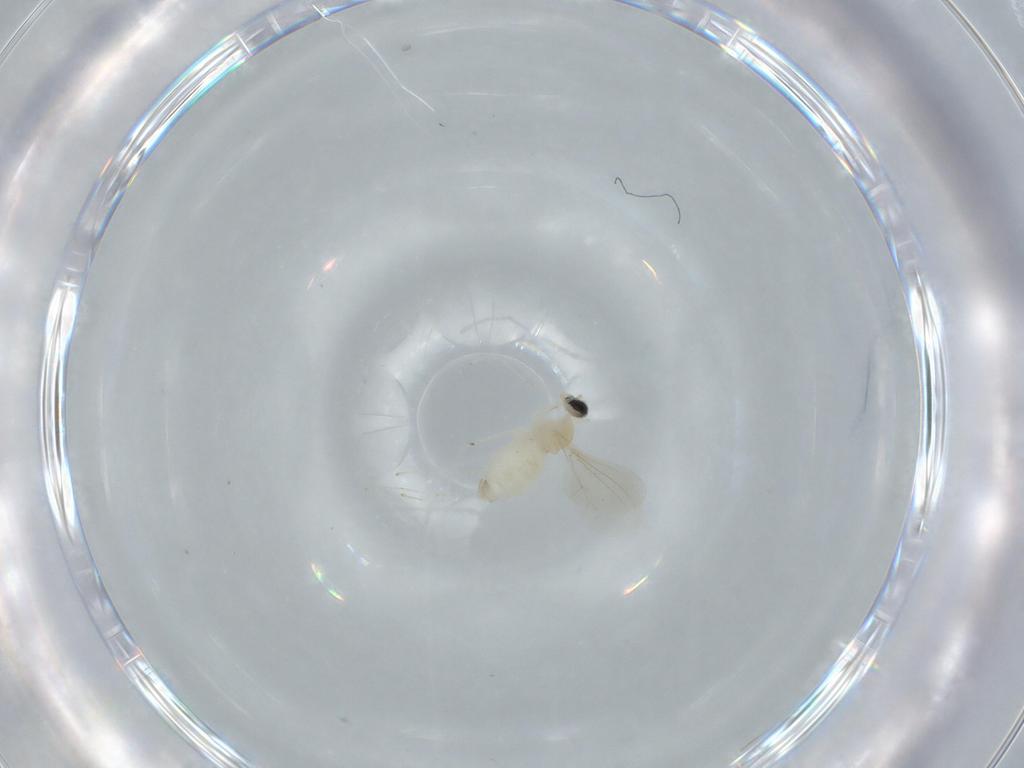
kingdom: Animalia
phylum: Arthropoda
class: Insecta
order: Diptera
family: Cecidomyiidae
